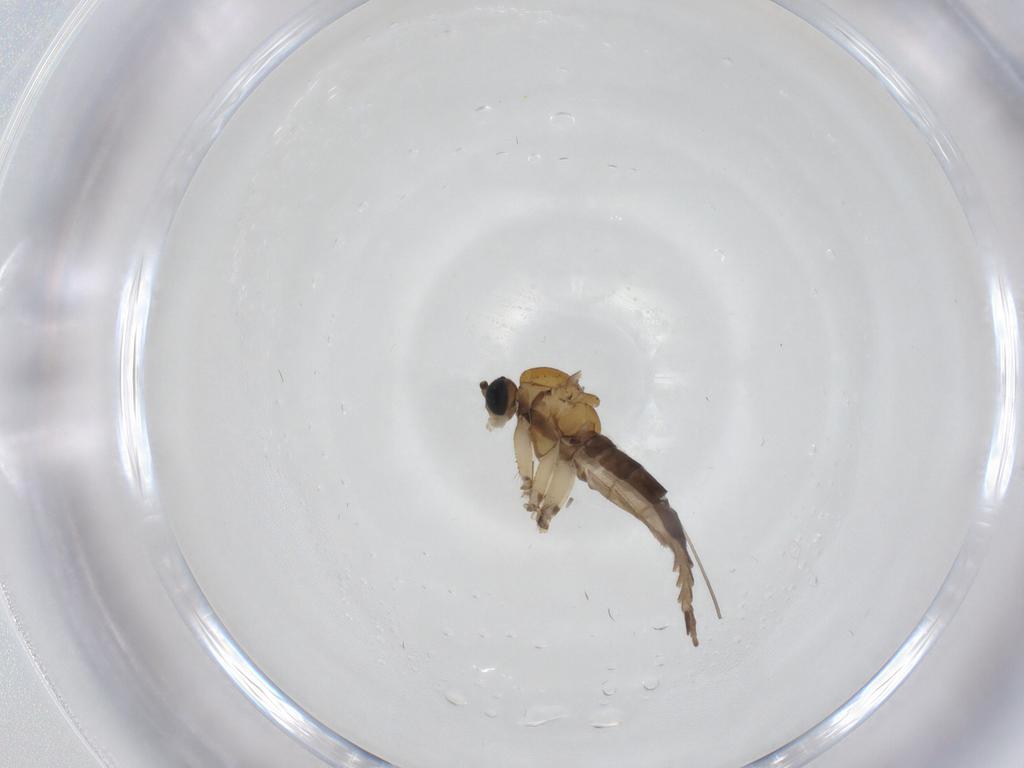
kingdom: Animalia
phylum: Arthropoda
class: Insecta
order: Diptera
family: Sciaridae
